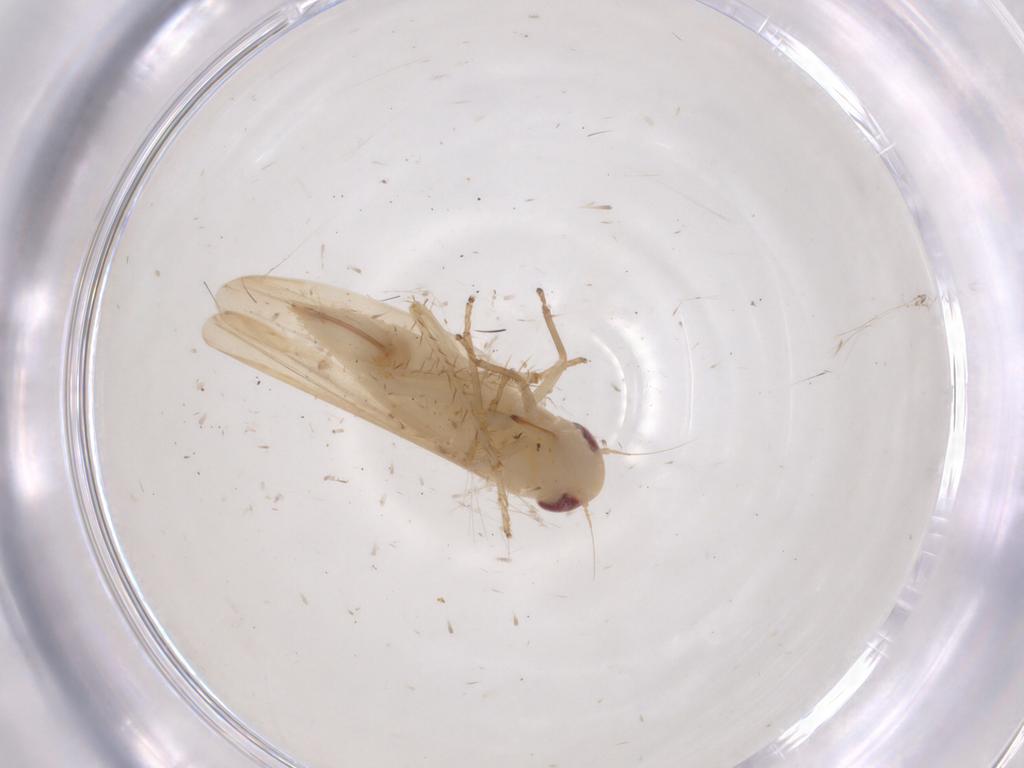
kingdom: Animalia
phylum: Arthropoda
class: Insecta
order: Hemiptera
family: Cicadellidae
